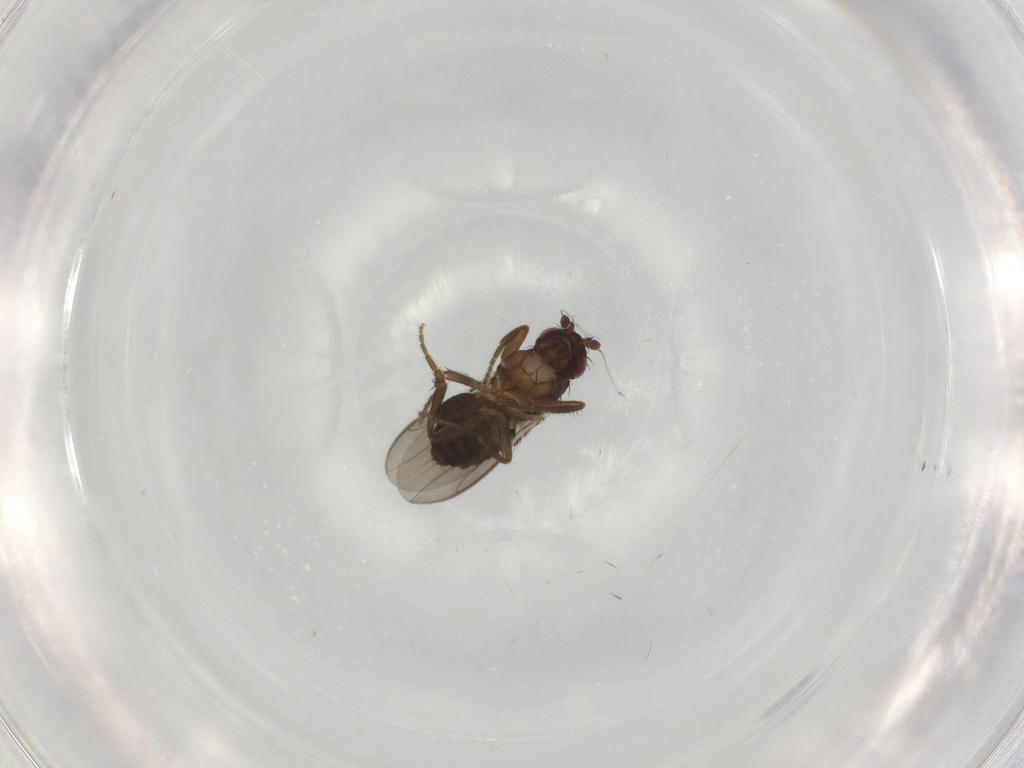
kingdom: Animalia
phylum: Arthropoda
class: Insecta
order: Diptera
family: Sphaeroceridae
